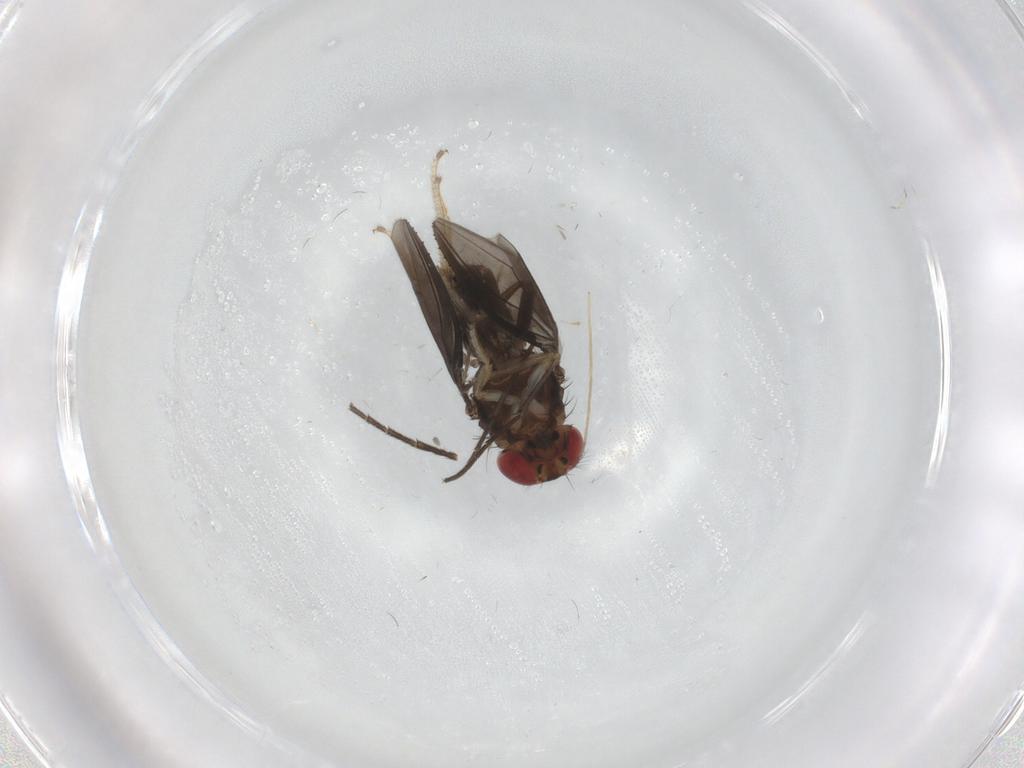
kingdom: Animalia
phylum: Arthropoda
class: Insecta
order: Diptera
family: Chironomidae
